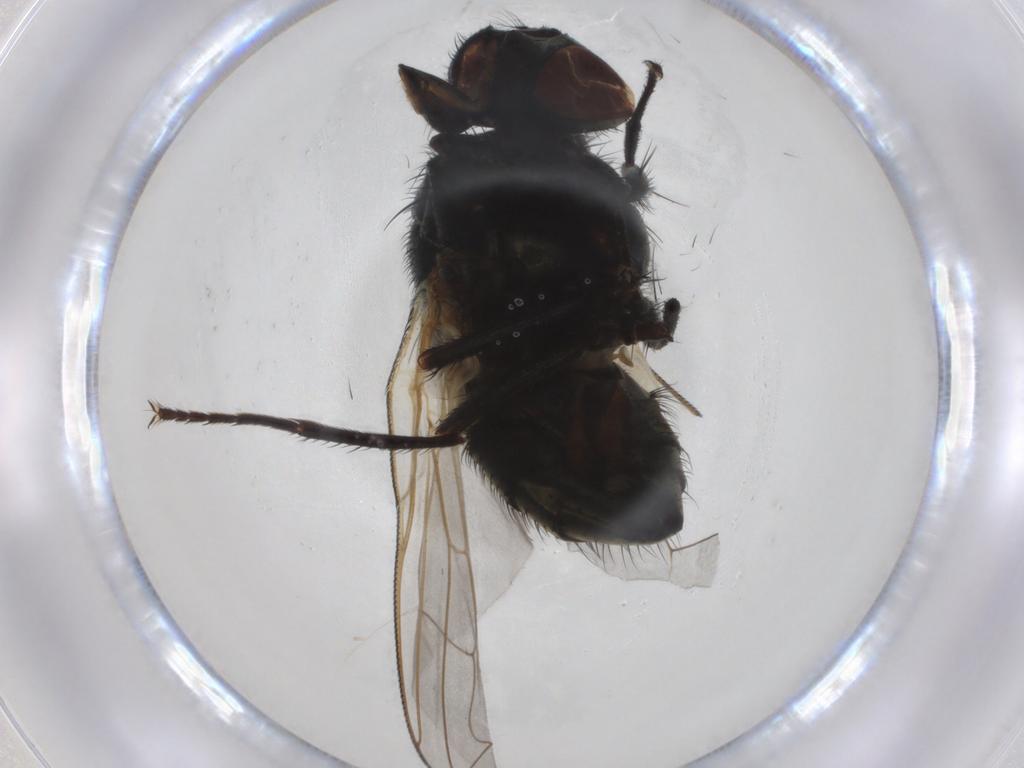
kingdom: Animalia
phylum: Arthropoda
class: Insecta
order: Diptera
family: Muscidae
